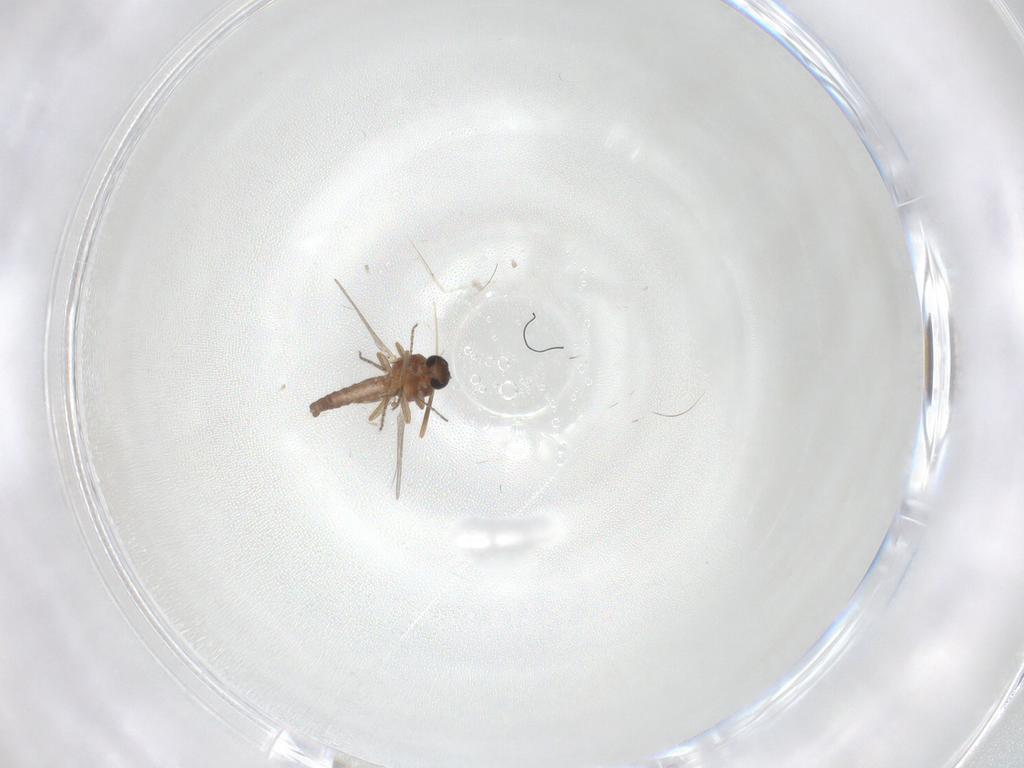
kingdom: Animalia
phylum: Arthropoda
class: Insecta
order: Diptera
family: Ceratopogonidae
